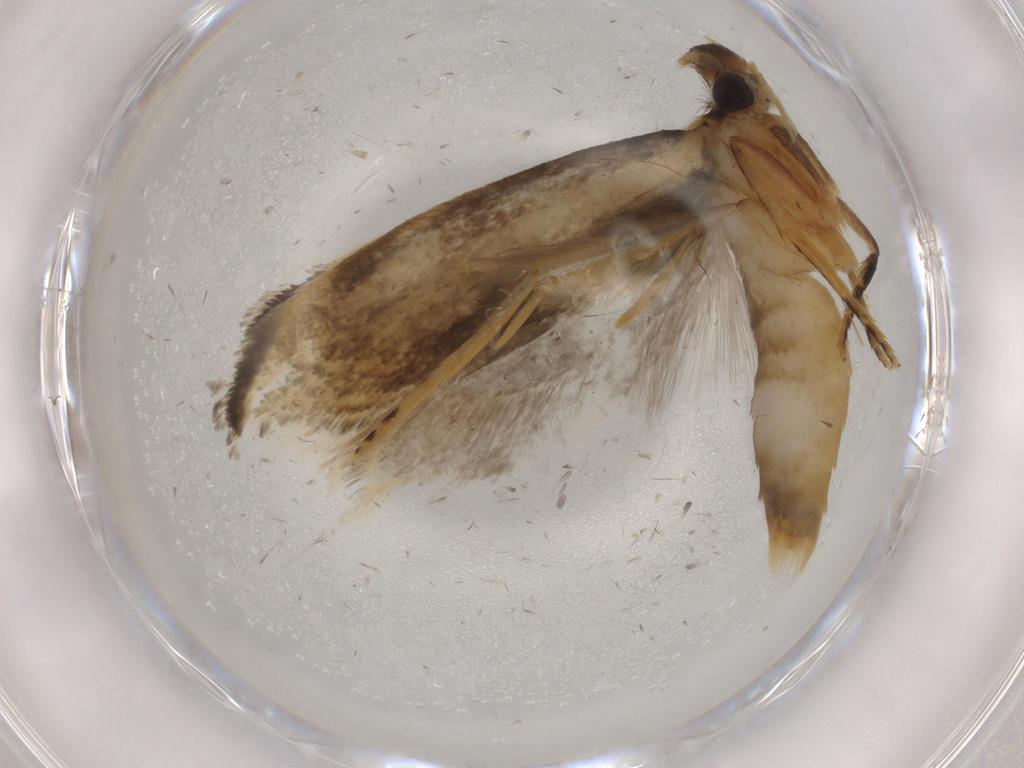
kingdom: Animalia
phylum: Arthropoda
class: Insecta
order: Lepidoptera
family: Tineidae
